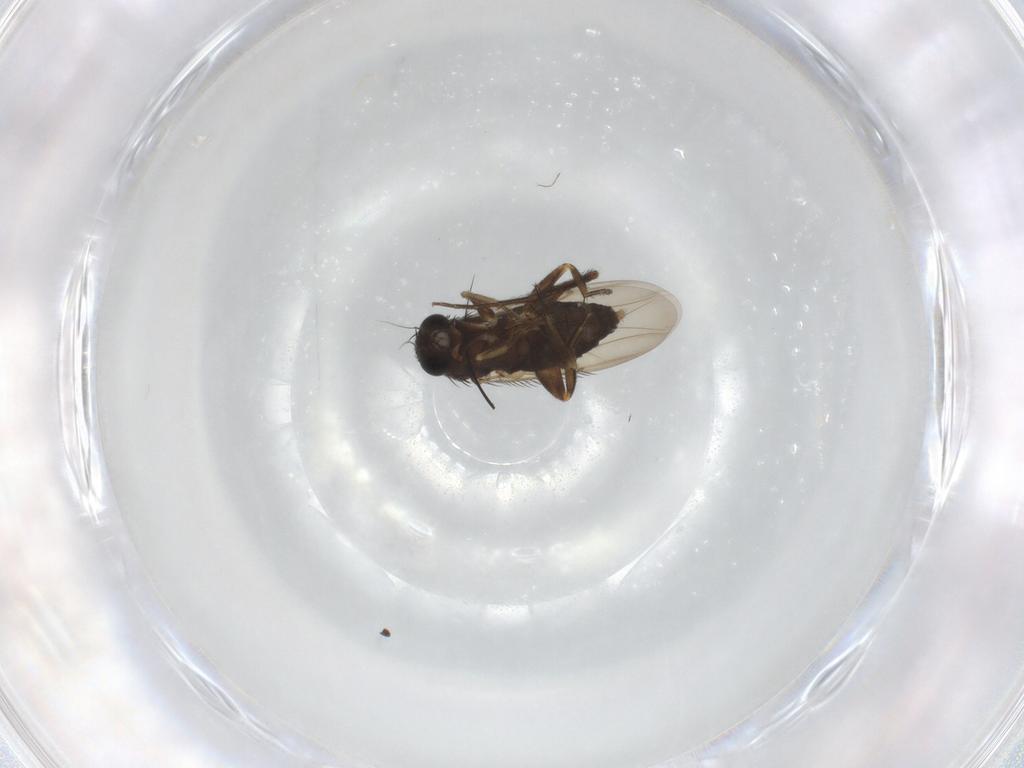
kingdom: Animalia
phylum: Arthropoda
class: Insecta
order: Diptera
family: Phoridae
